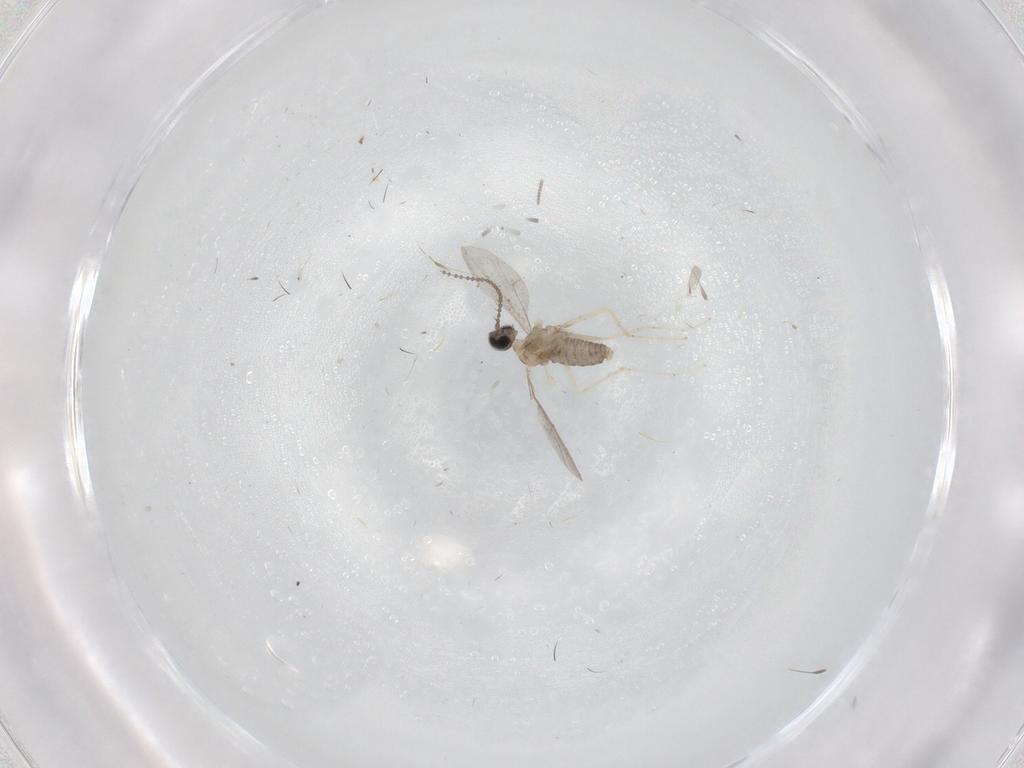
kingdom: Animalia
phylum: Arthropoda
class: Insecta
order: Diptera
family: Cecidomyiidae
